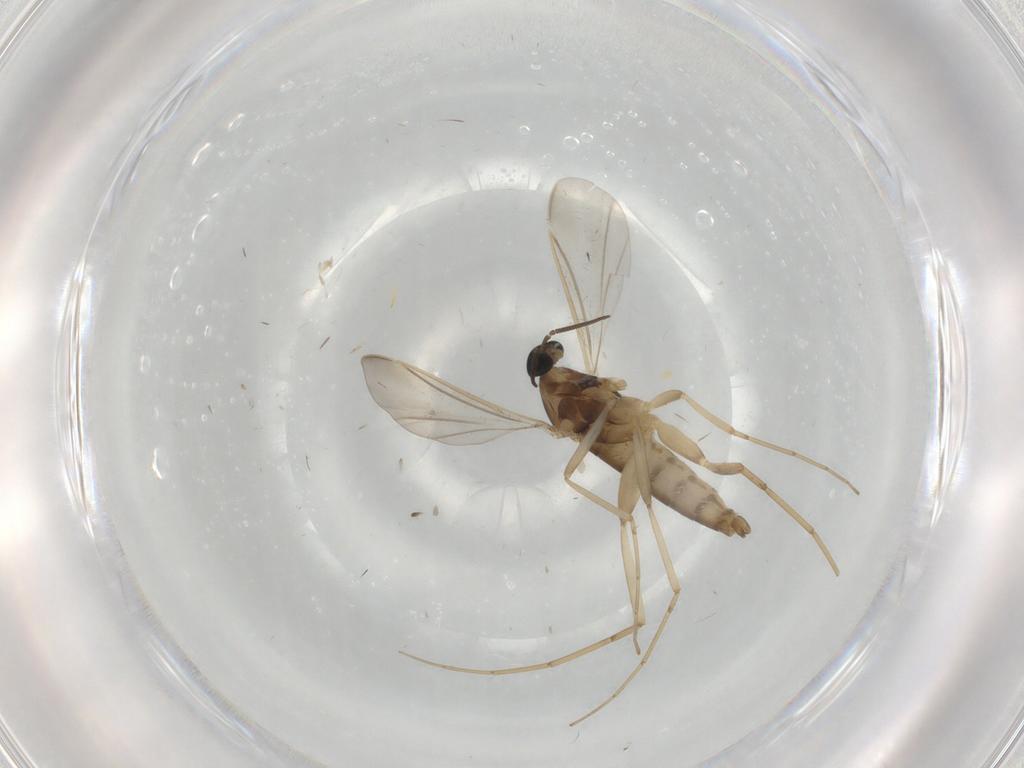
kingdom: Animalia
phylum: Arthropoda
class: Insecta
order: Diptera
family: Cecidomyiidae
